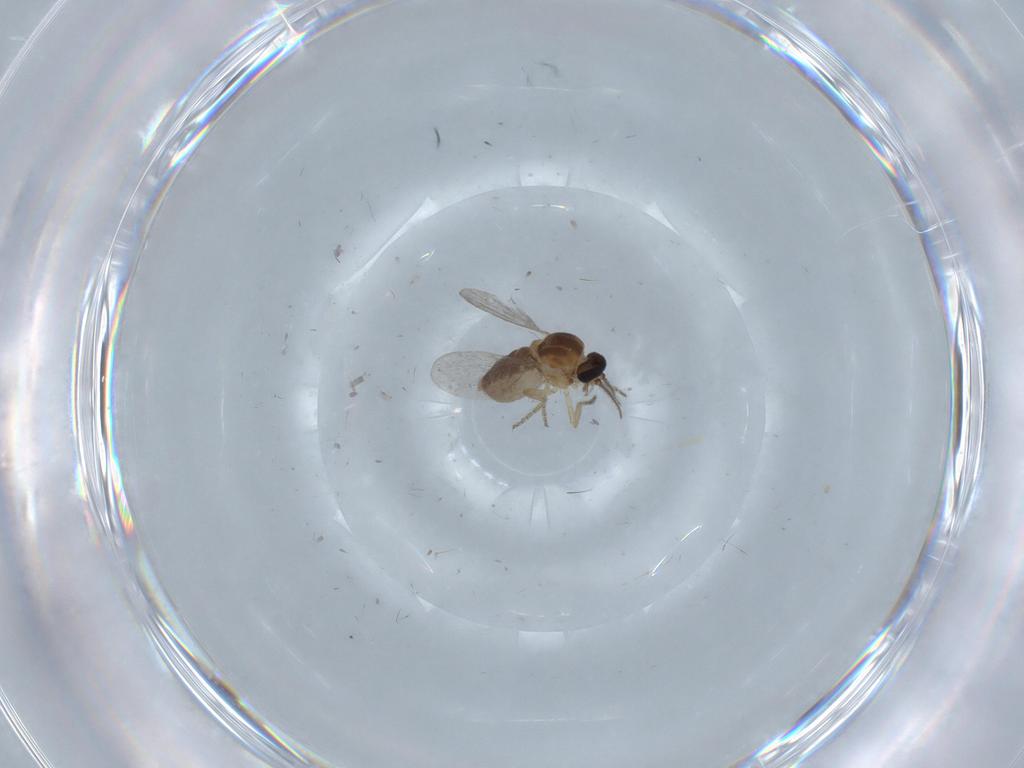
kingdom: Animalia
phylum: Arthropoda
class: Insecta
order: Diptera
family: Ceratopogonidae
